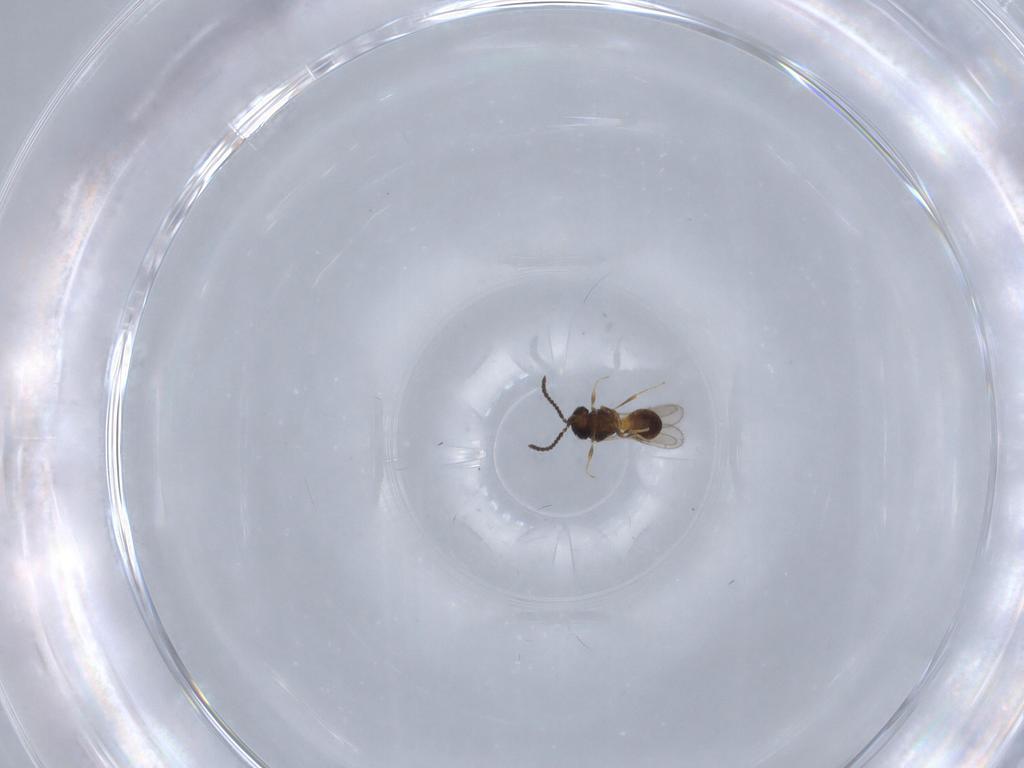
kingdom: Animalia
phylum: Arthropoda
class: Insecta
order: Hymenoptera
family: Scelionidae
